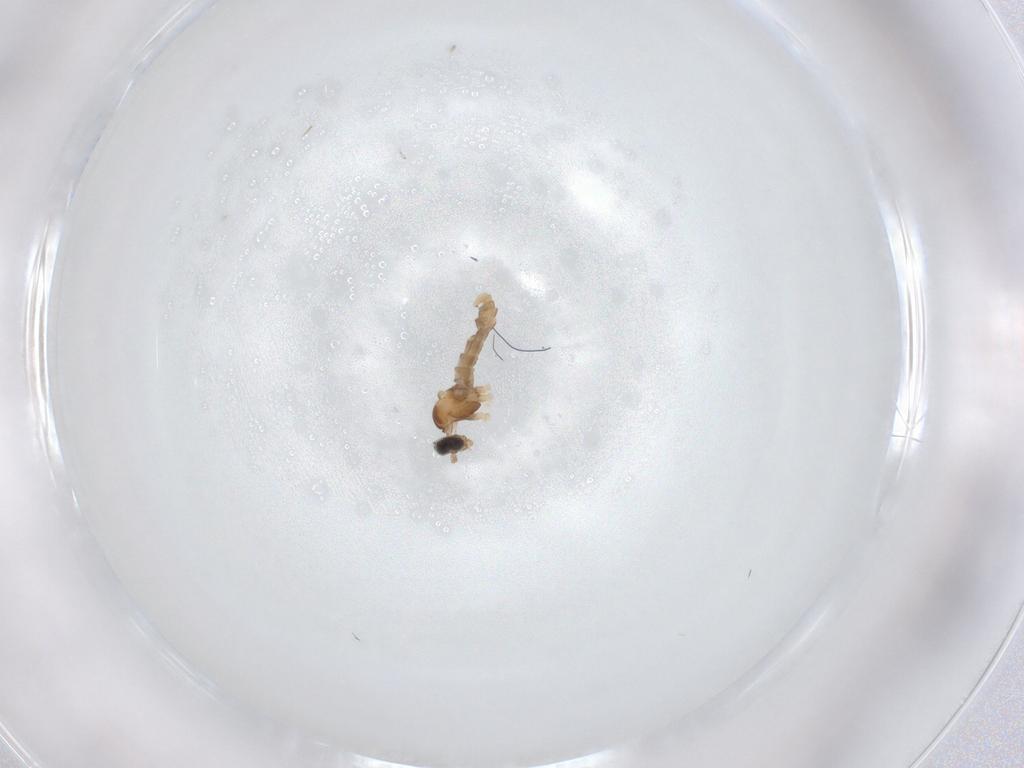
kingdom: Animalia
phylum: Arthropoda
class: Insecta
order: Diptera
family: Cecidomyiidae
